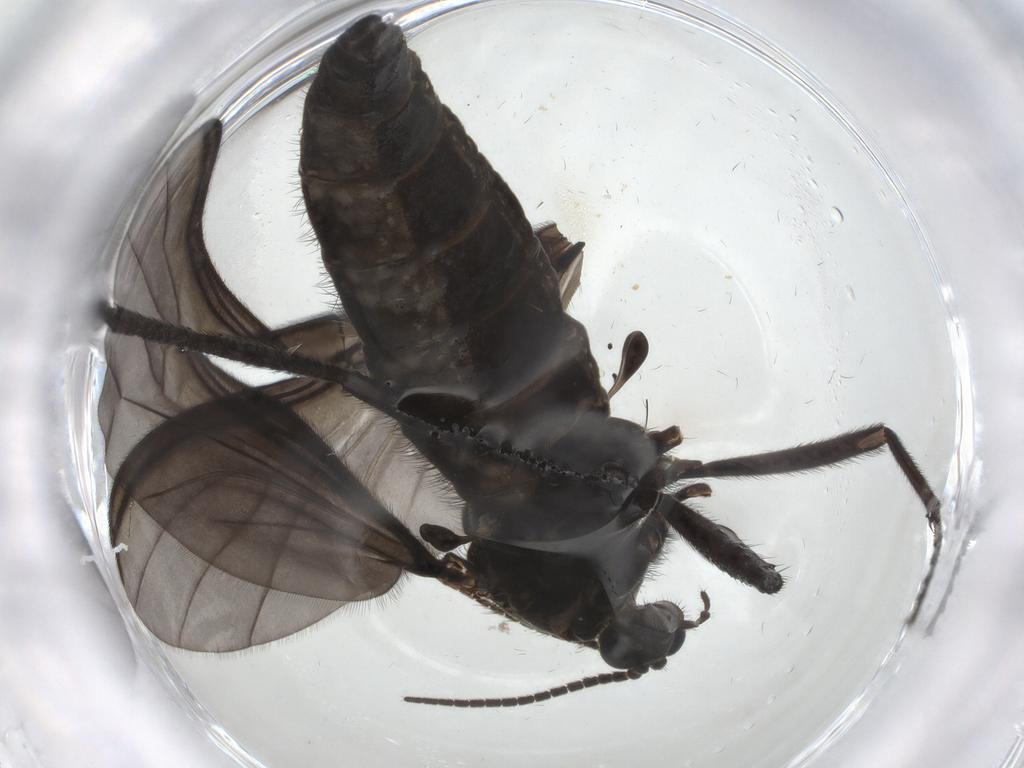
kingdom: Animalia
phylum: Arthropoda
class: Insecta
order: Diptera
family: Sciaridae
